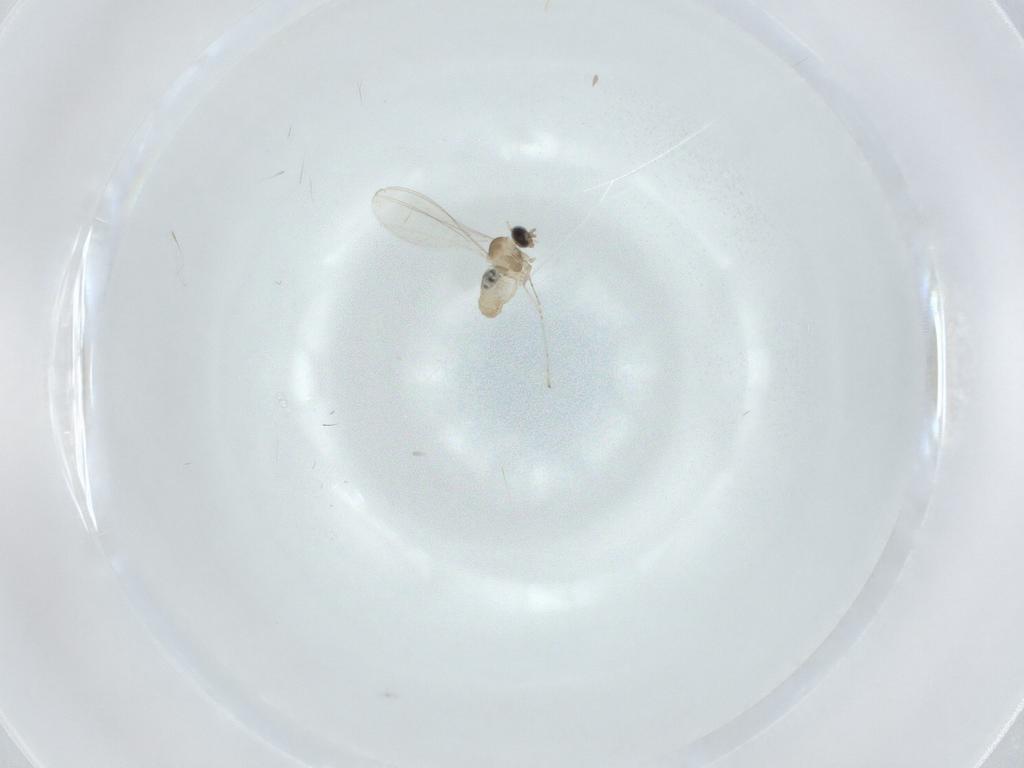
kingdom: Animalia
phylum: Arthropoda
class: Insecta
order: Diptera
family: Cecidomyiidae
